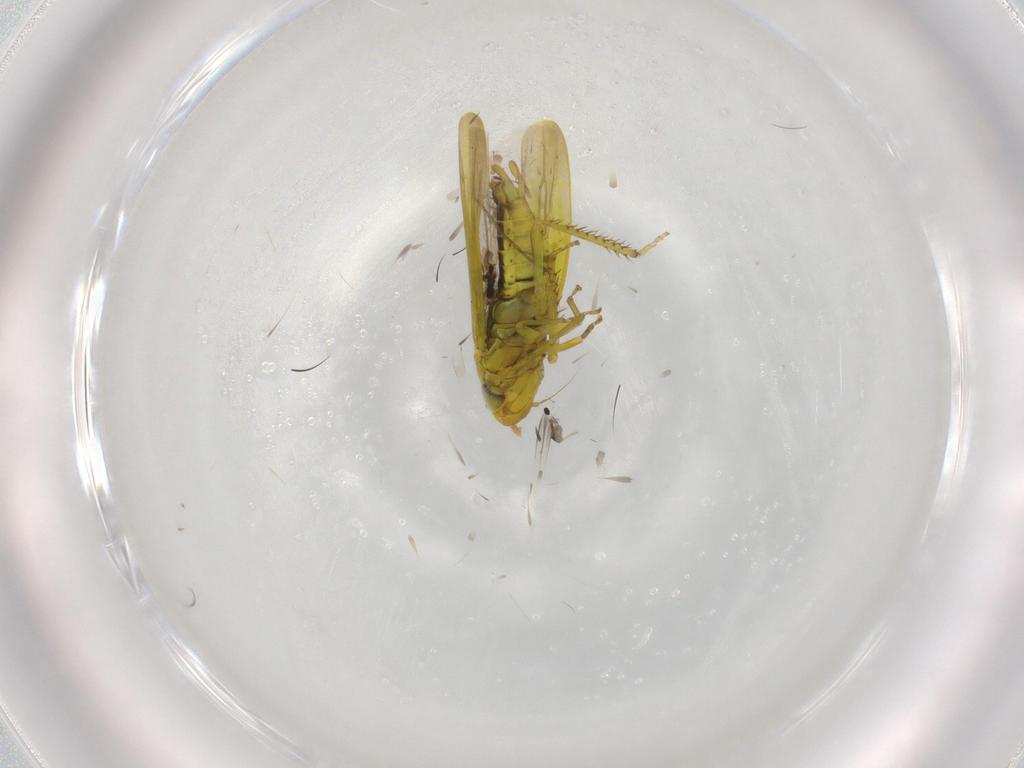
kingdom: Animalia
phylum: Arthropoda
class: Insecta
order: Hemiptera
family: Cicadellidae
